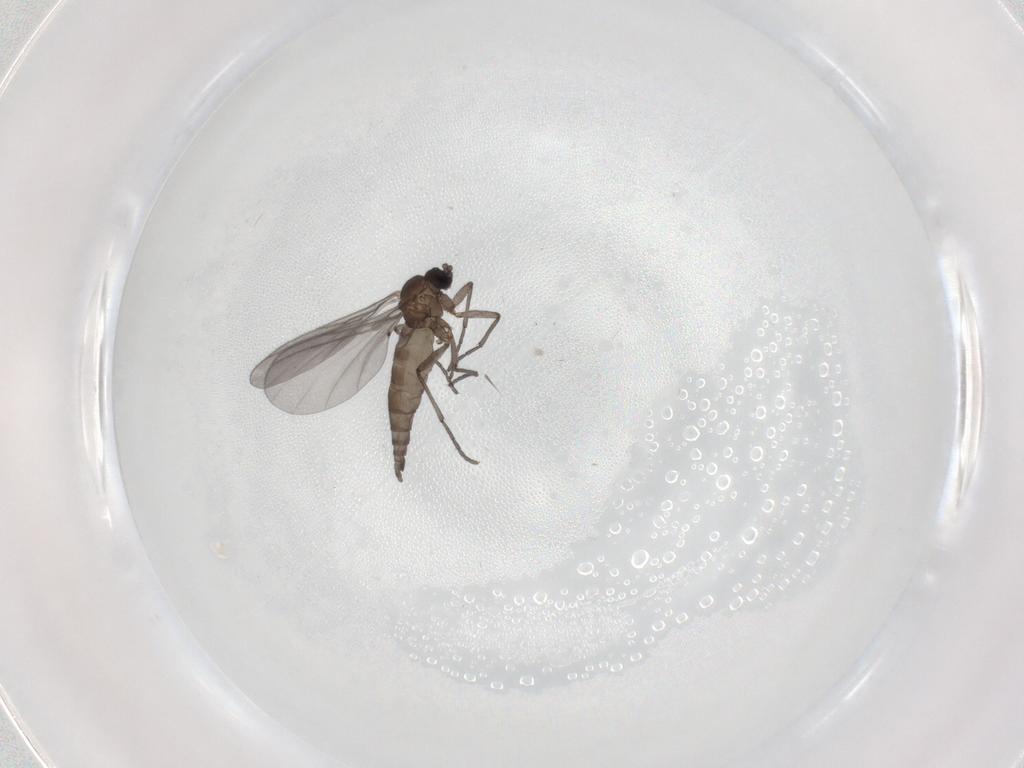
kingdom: Animalia
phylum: Arthropoda
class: Insecta
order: Diptera
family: Sciaridae
